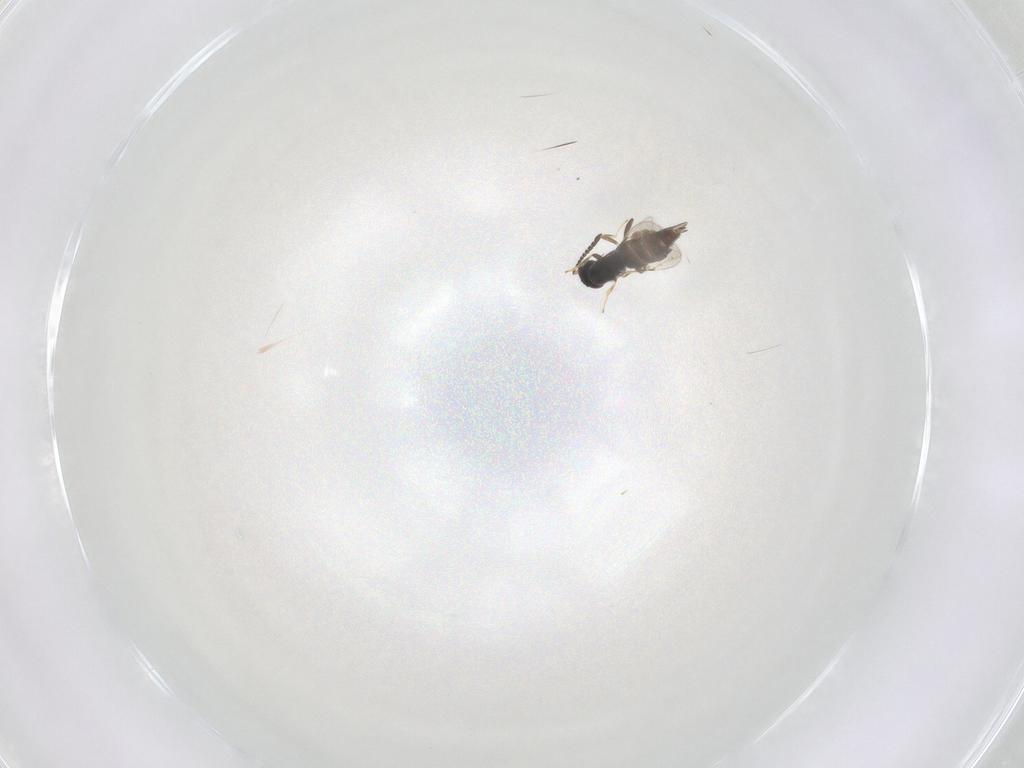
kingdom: Animalia
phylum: Arthropoda
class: Insecta
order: Hymenoptera
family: Ceraphronidae
